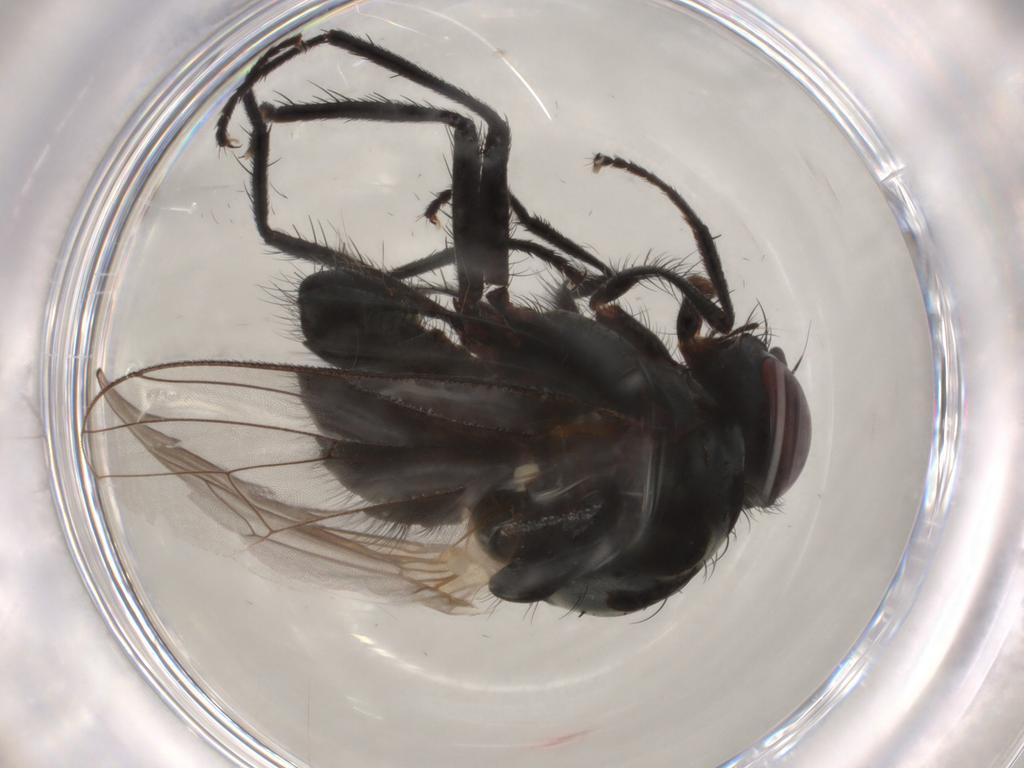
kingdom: Animalia
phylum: Arthropoda
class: Insecta
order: Diptera
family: Anthomyiidae
